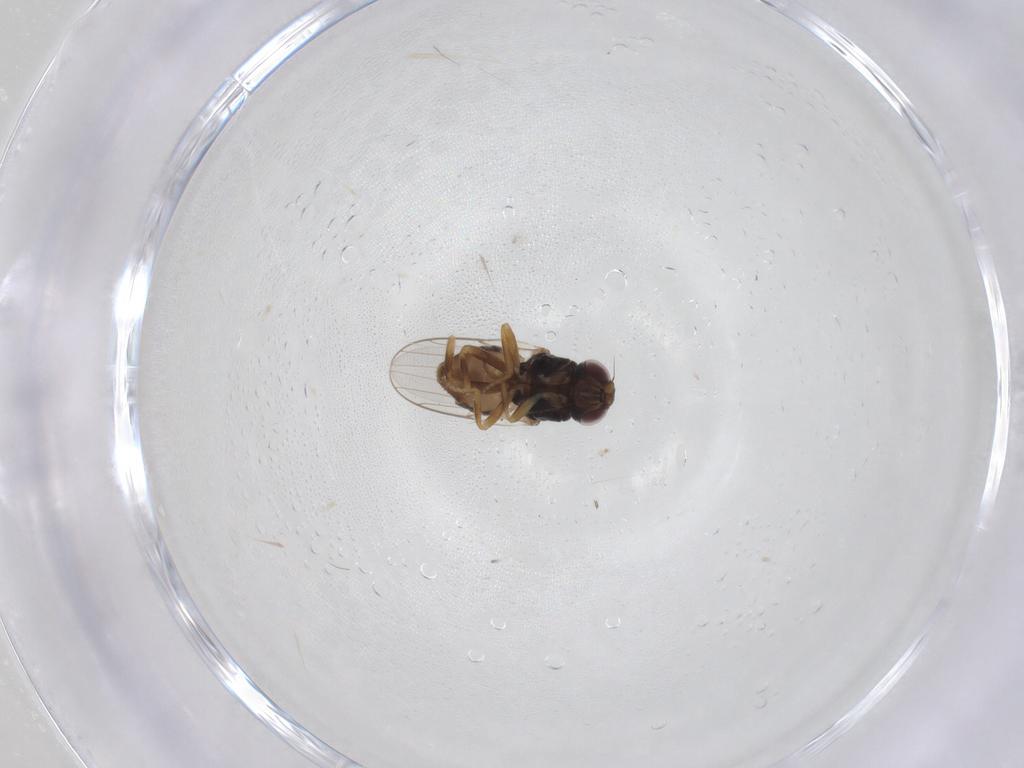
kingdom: Animalia
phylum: Arthropoda
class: Insecta
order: Diptera
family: Chloropidae
